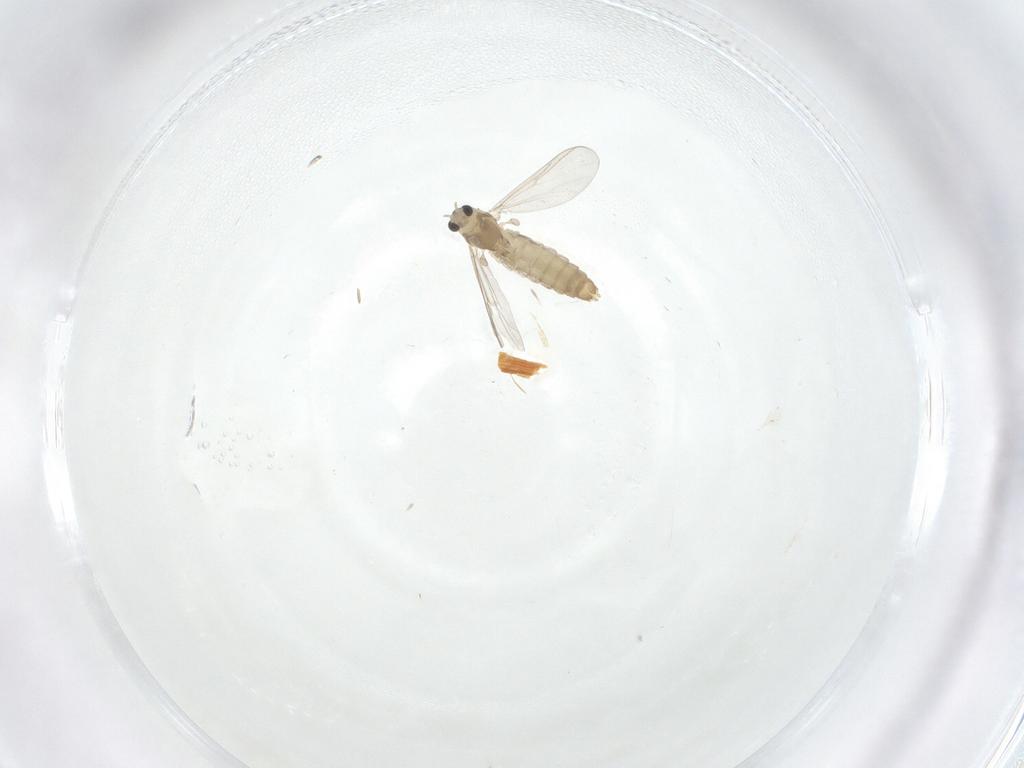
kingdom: Animalia
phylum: Arthropoda
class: Insecta
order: Diptera
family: Chironomidae
